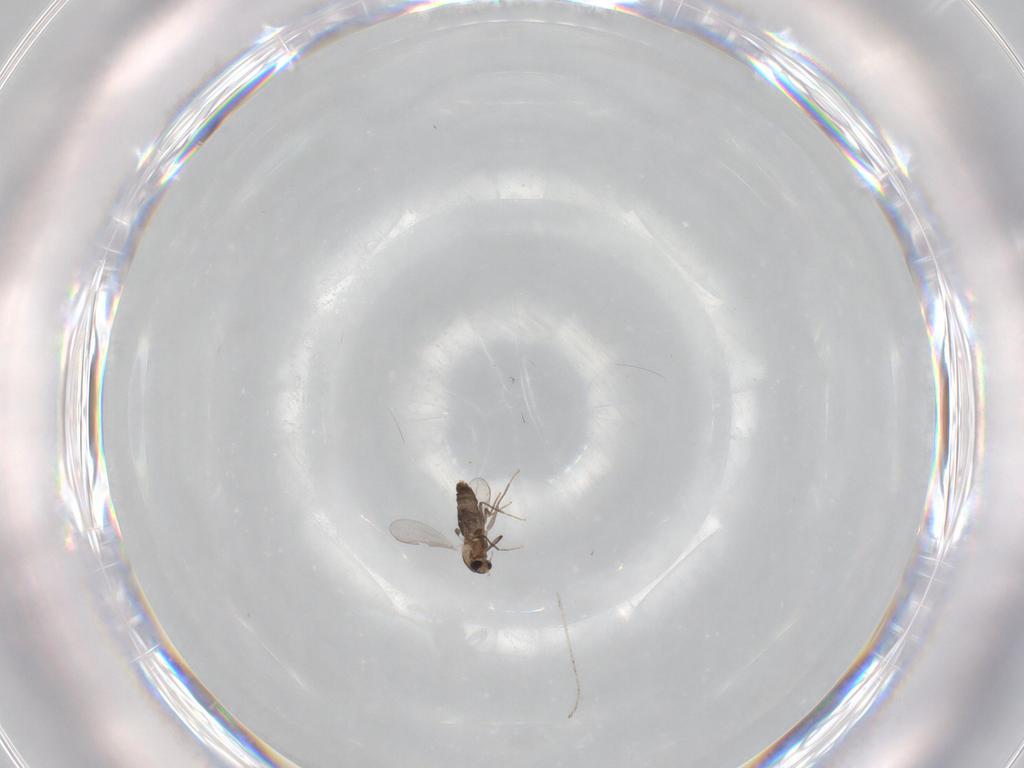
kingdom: Animalia
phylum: Arthropoda
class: Insecta
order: Diptera
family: Chironomidae
